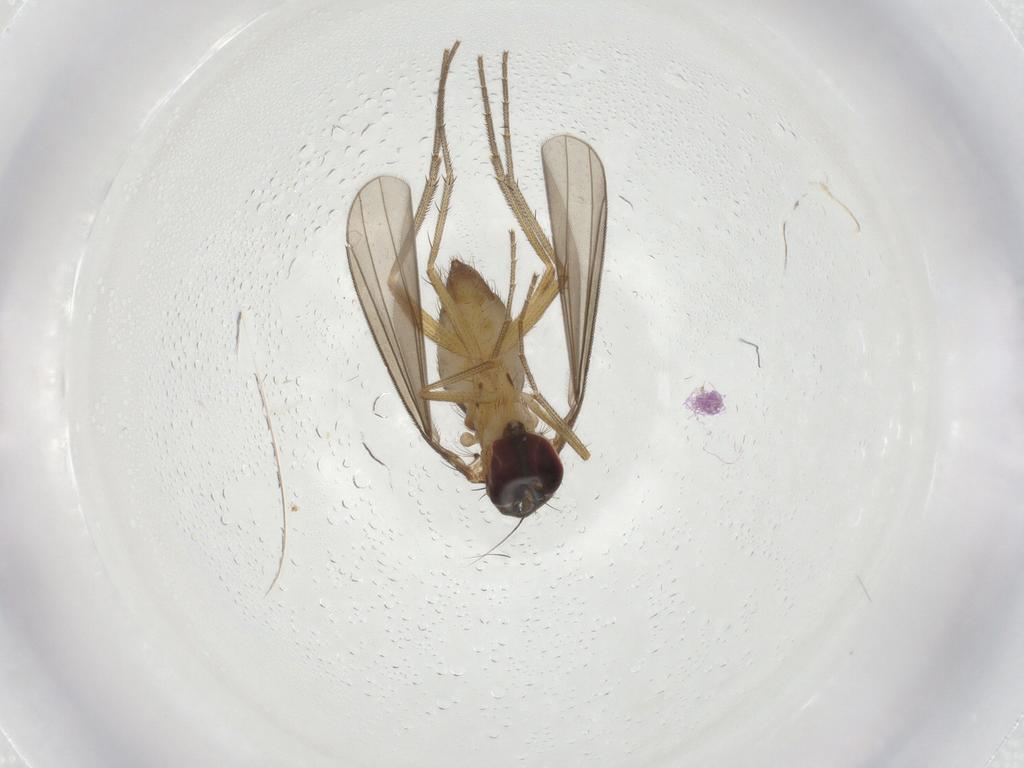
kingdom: Animalia
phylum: Arthropoda
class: Insecta
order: Diptera
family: Dolichopodidae
